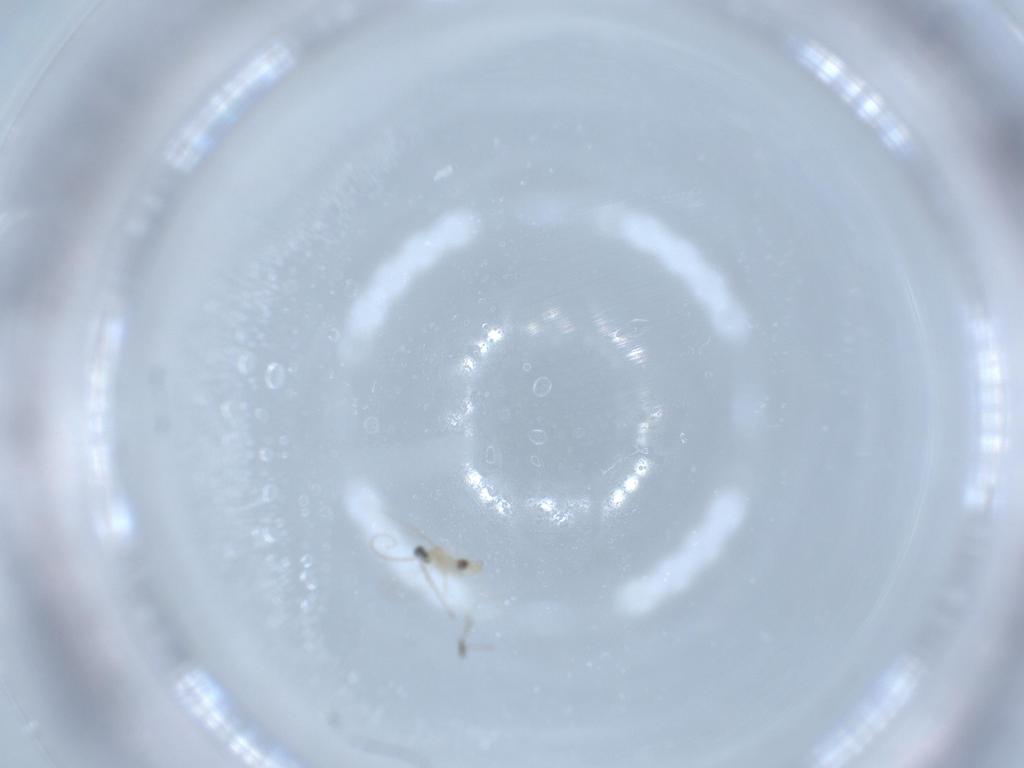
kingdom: Animalia
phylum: Arthropoda
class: Insecta
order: Diptera
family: Cecidomyiidae
